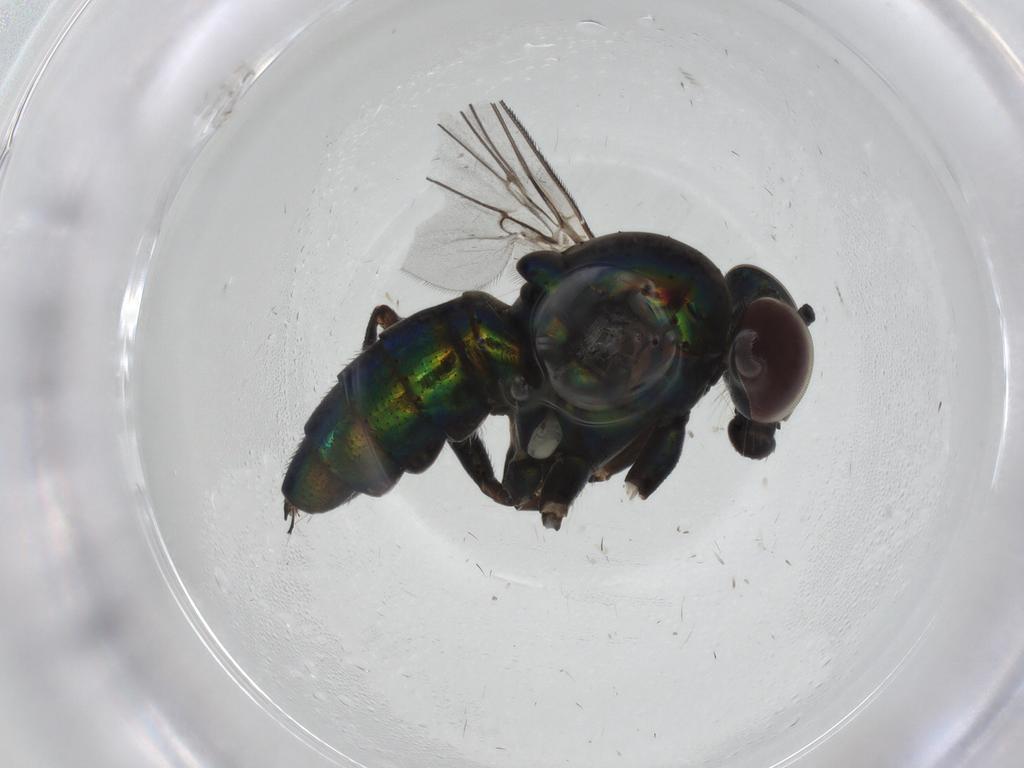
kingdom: Animalia
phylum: Arthropoda
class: Insecta
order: Diptera
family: Dolichopodidae
